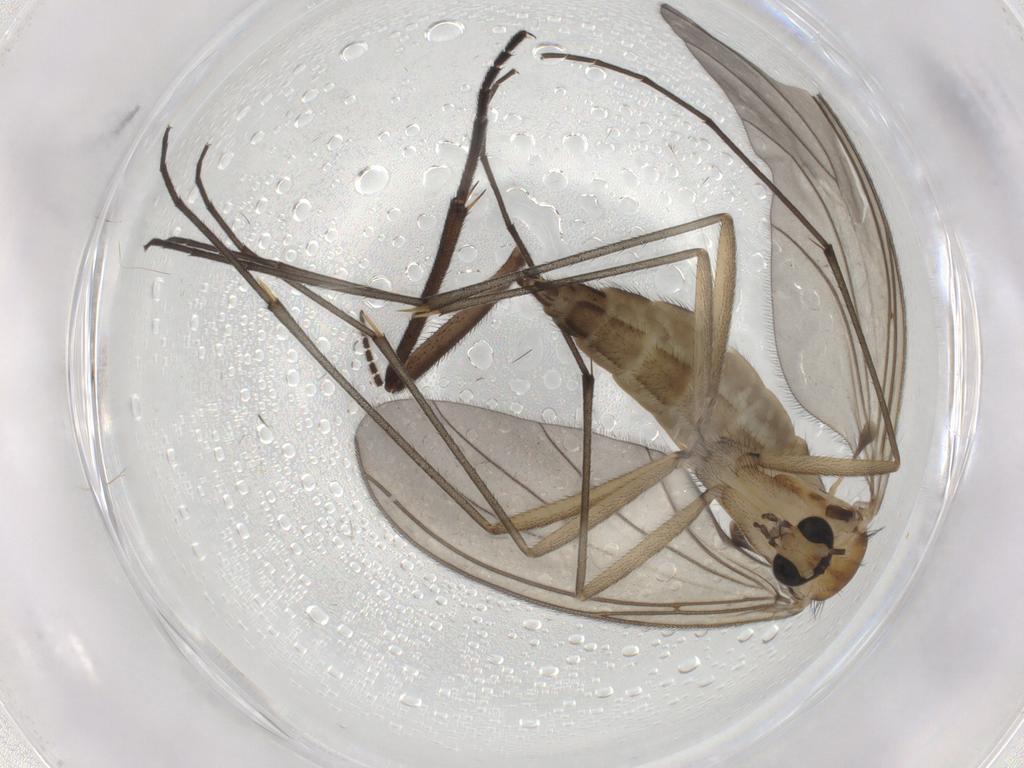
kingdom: Animalia
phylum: Arthropoda
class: Insecta
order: Diptera
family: Sciaridae
